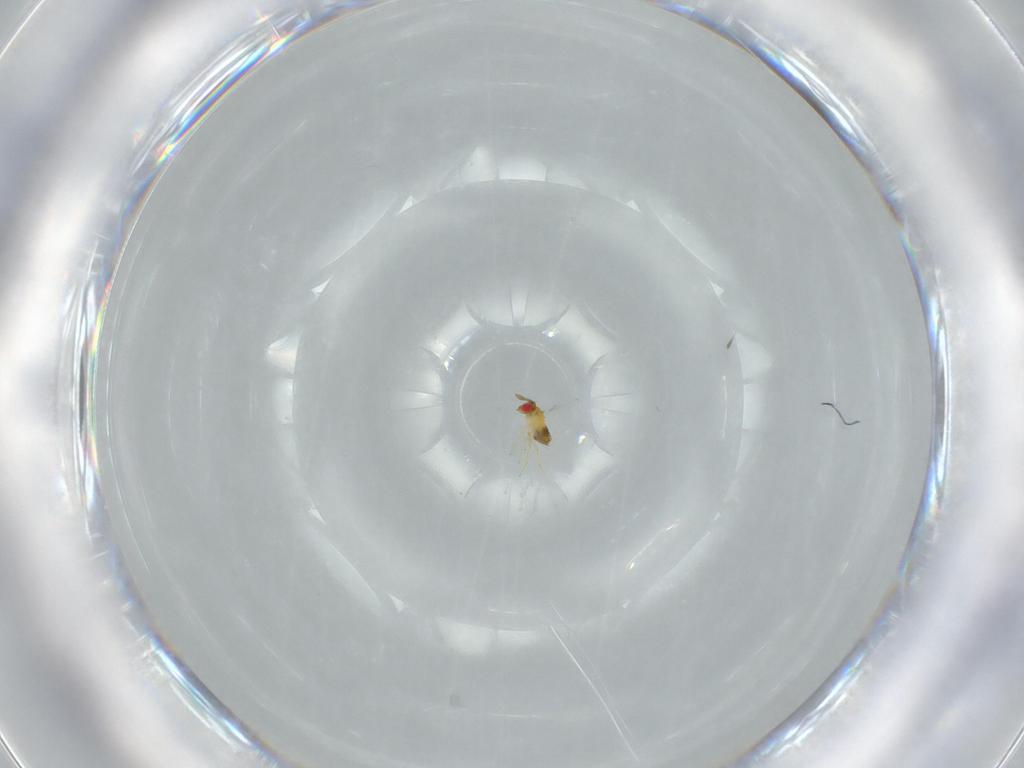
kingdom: Animalia
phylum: Arthropoda
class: Insecta
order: Hymenoptera
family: Trichogrammatidae
